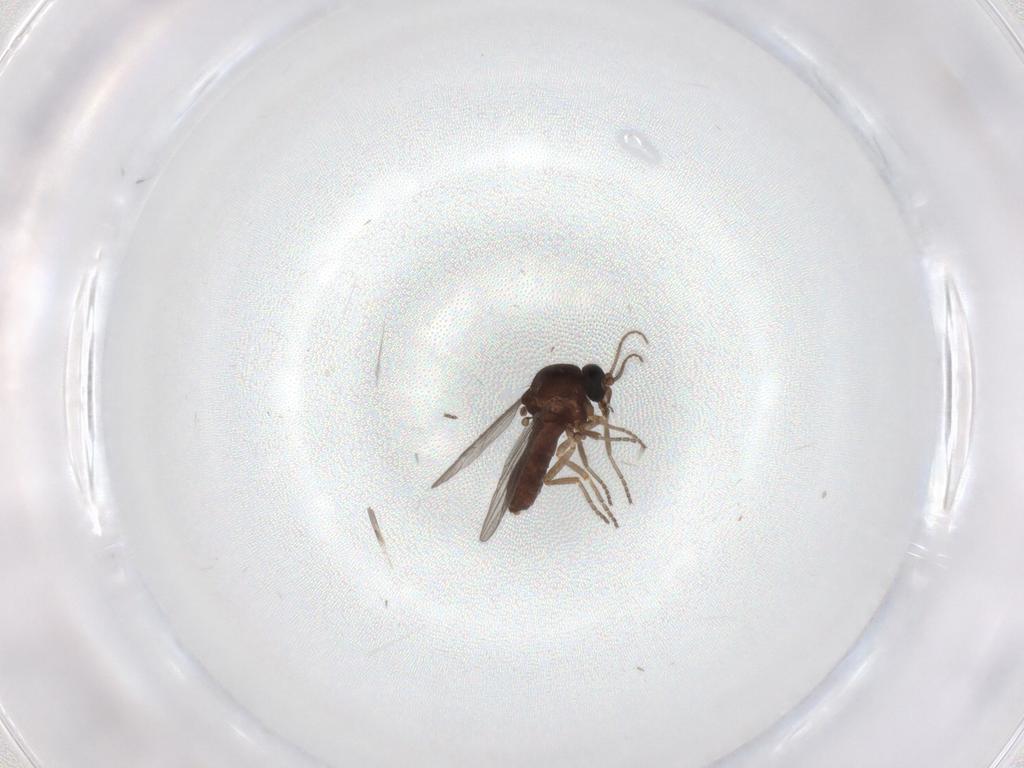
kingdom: Animalia
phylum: Arthropoda
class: Insecta
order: Diptera
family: Ceratopogonidae
